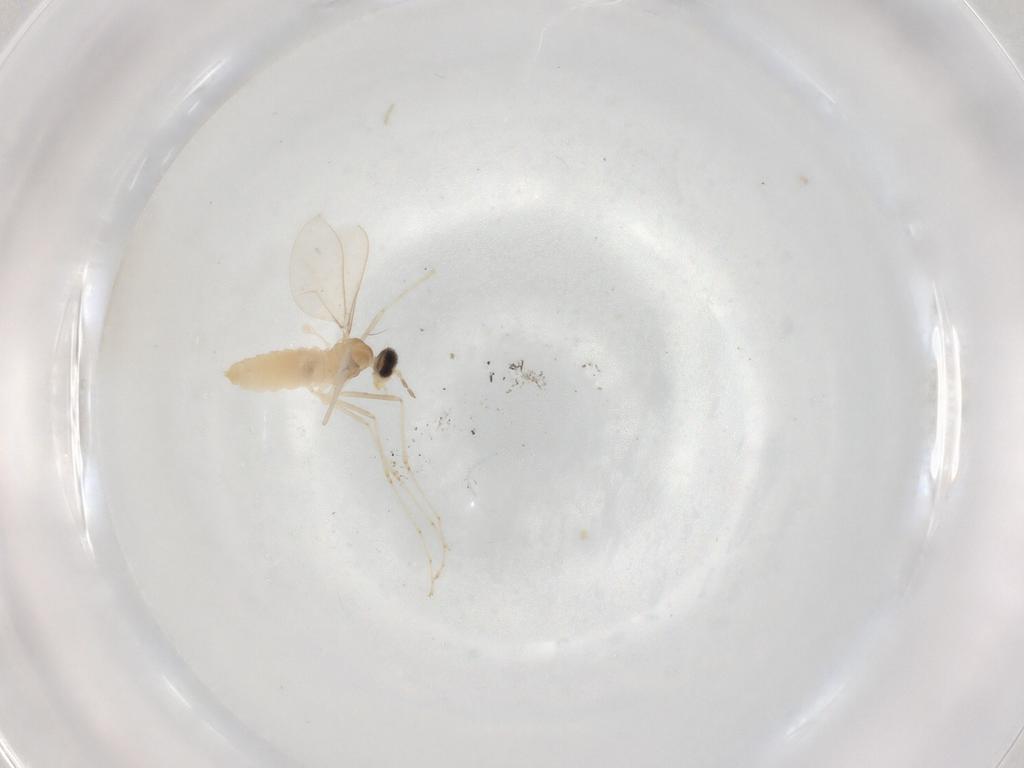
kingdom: Animalia
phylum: Arthropoda
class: Insecta
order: Diptera
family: Cecidomyiidae
